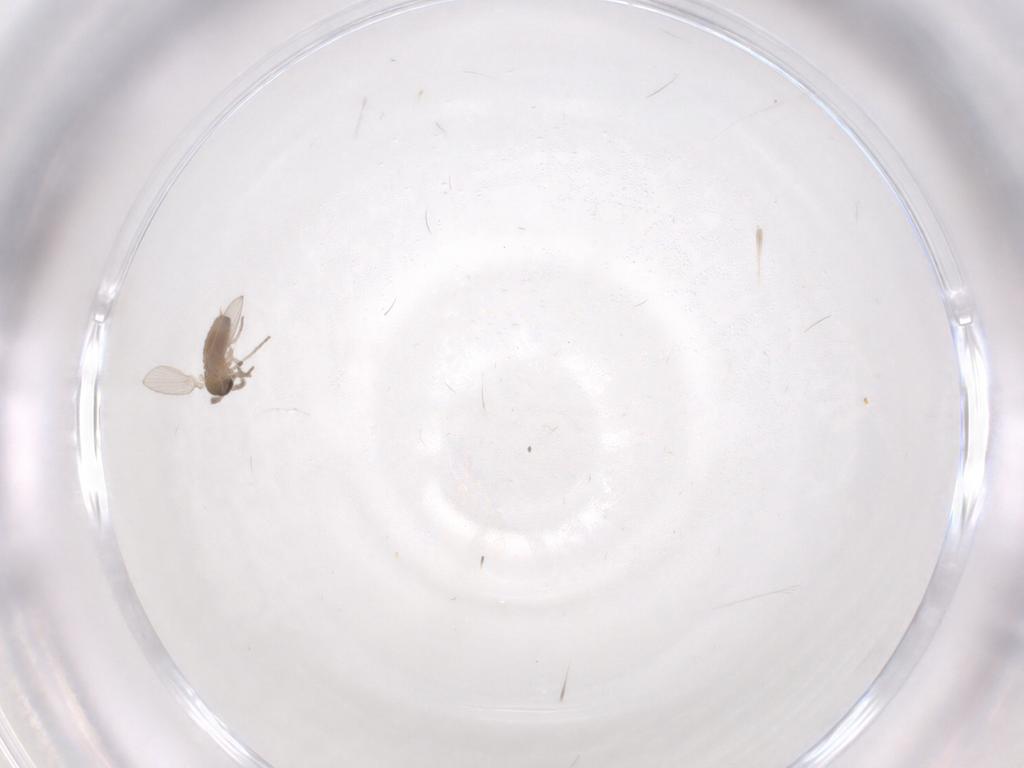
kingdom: Animalia
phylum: Arthropoda
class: Insecta
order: Diptera
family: Psychodidae
